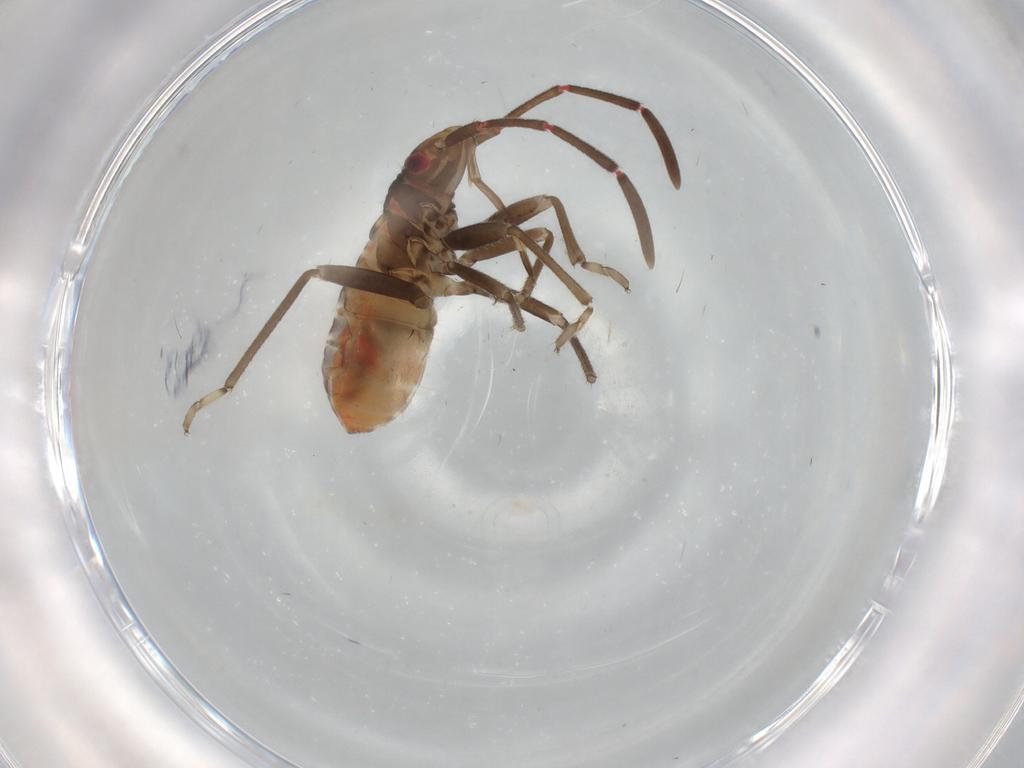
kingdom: Animalia
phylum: Arthropoda
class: Insecta
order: Hemiptera
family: Rhyparochromidae
